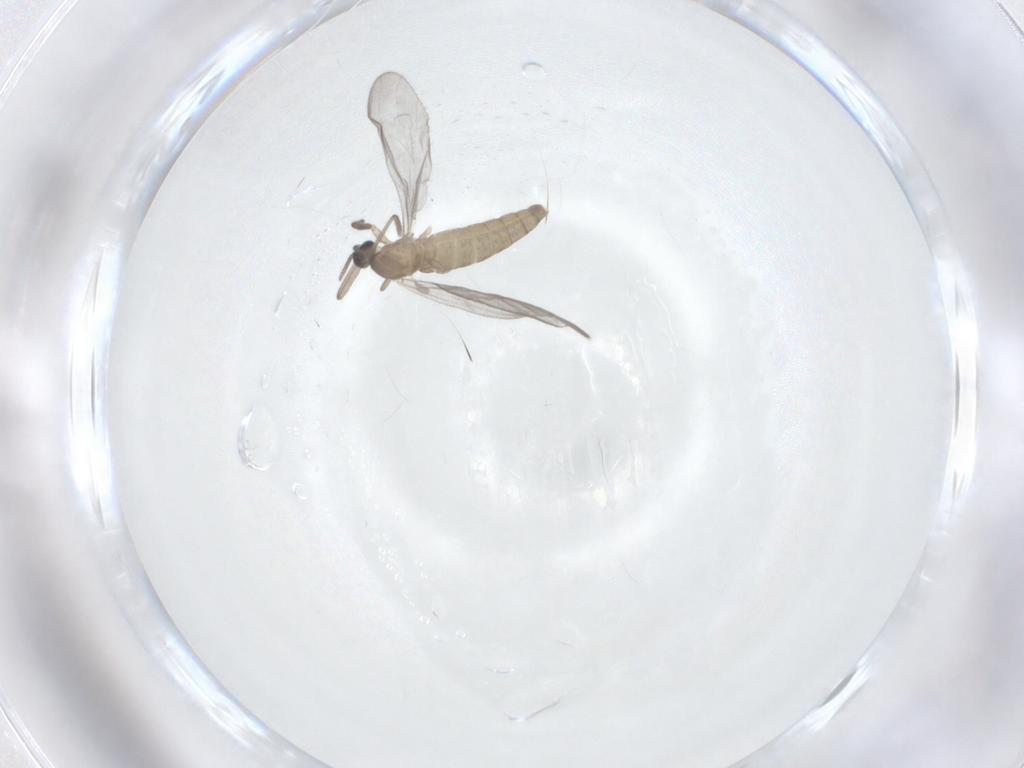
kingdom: Animalia
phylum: Arthropoda
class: Insecta
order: Diptera
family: Cecidomyiidae
